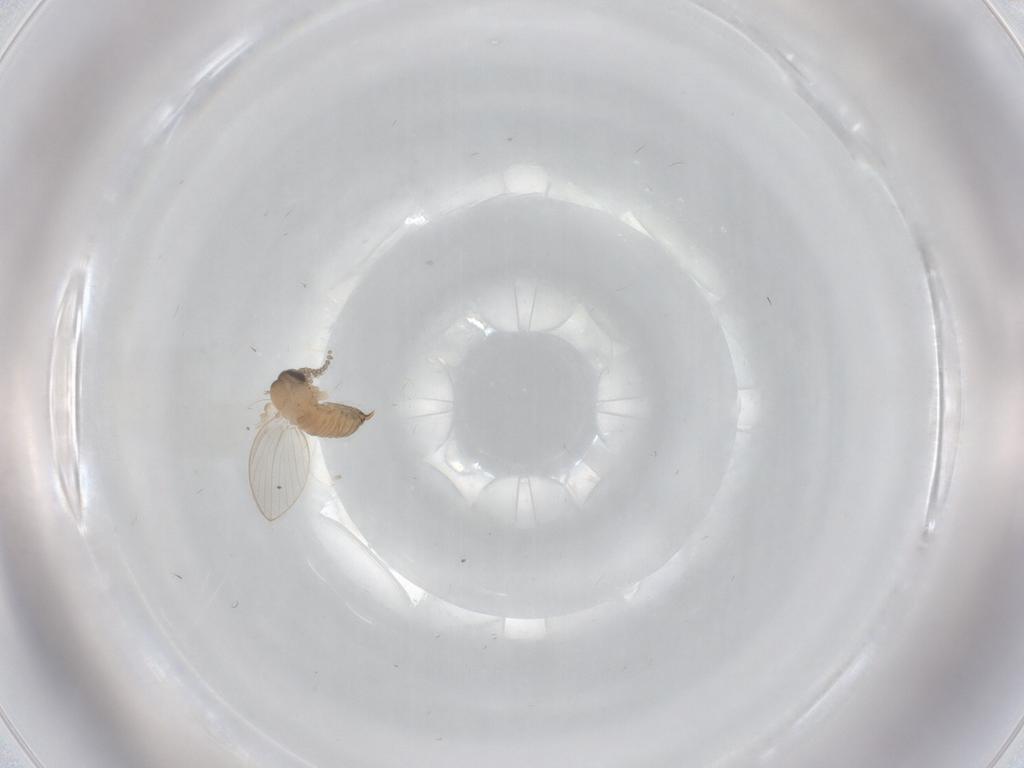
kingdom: Animalia
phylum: Arthropoda
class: Insecta
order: Diptera
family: Psychodidae
